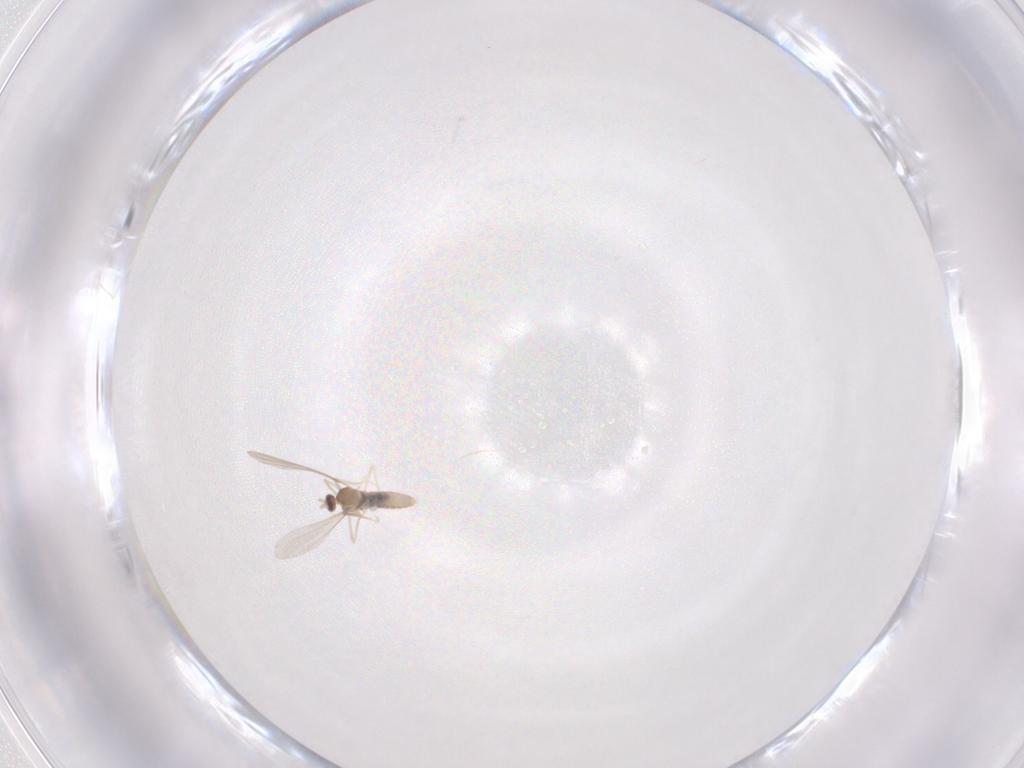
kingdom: Animalia
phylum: Arthropoda
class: Insecta
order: Diptera
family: Cecidomyiidae
